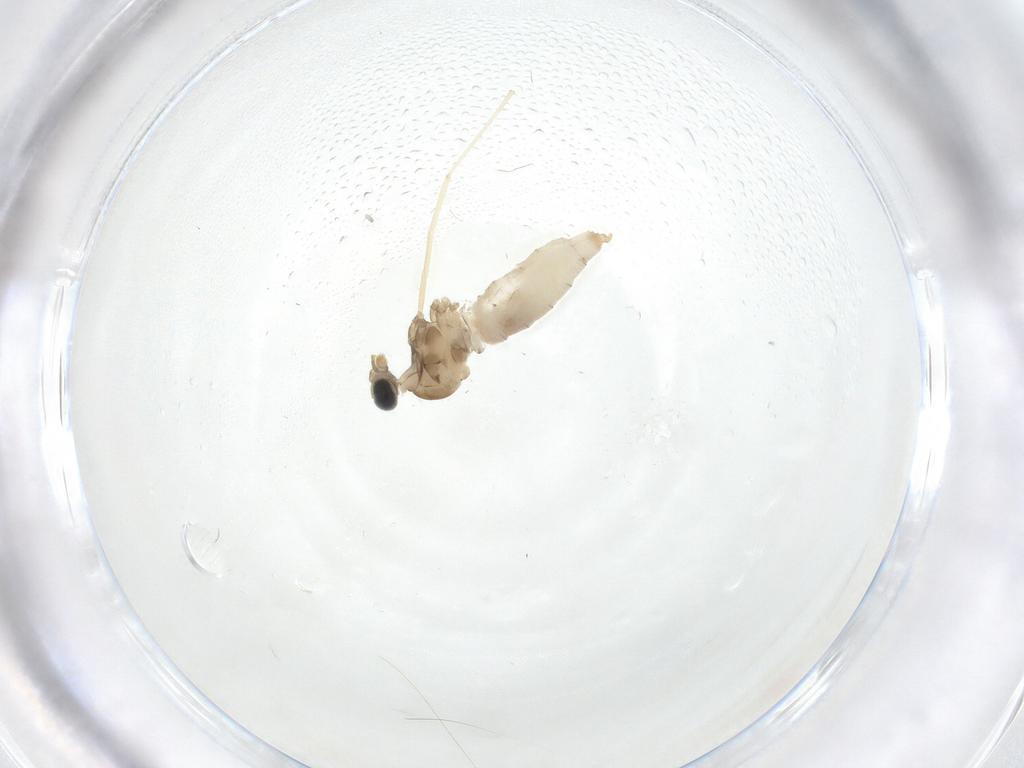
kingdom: Animalia
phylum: Arthropoda
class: Insecta
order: Diptera
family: Cecidomyiidae
